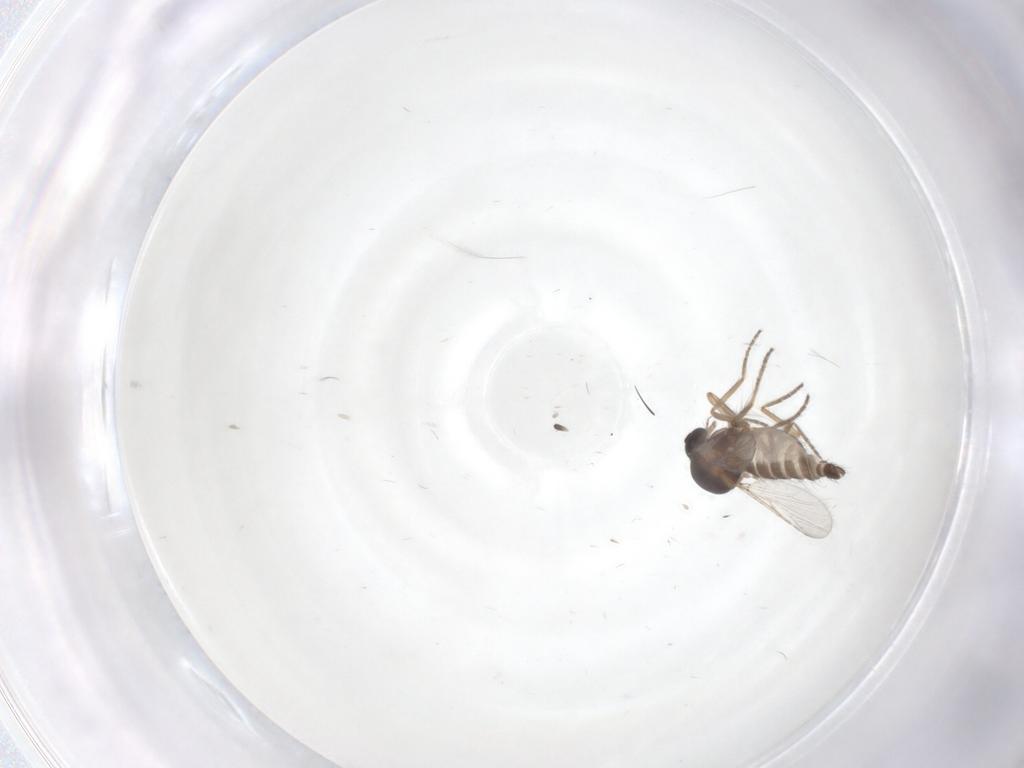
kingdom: Animalia
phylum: Arthropoda
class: Insecta
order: Diptera
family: Ceratopogonidae
